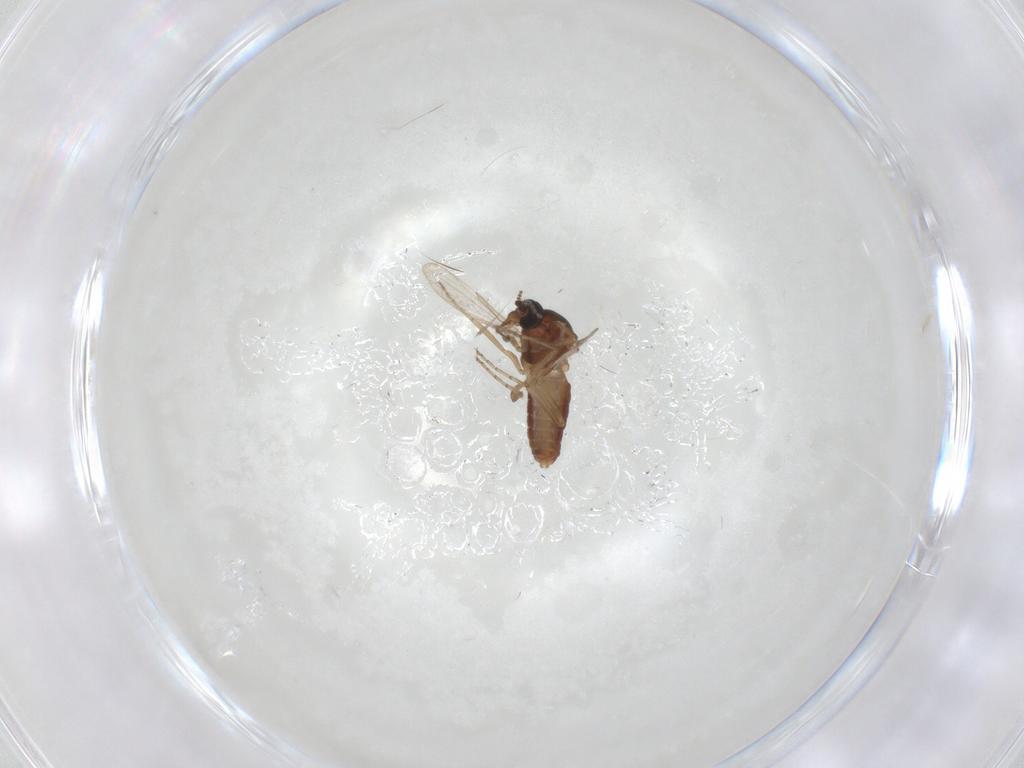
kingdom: Animalia
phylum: Arthropoda
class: Insecta
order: Diptera
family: Ceratopogonidae
